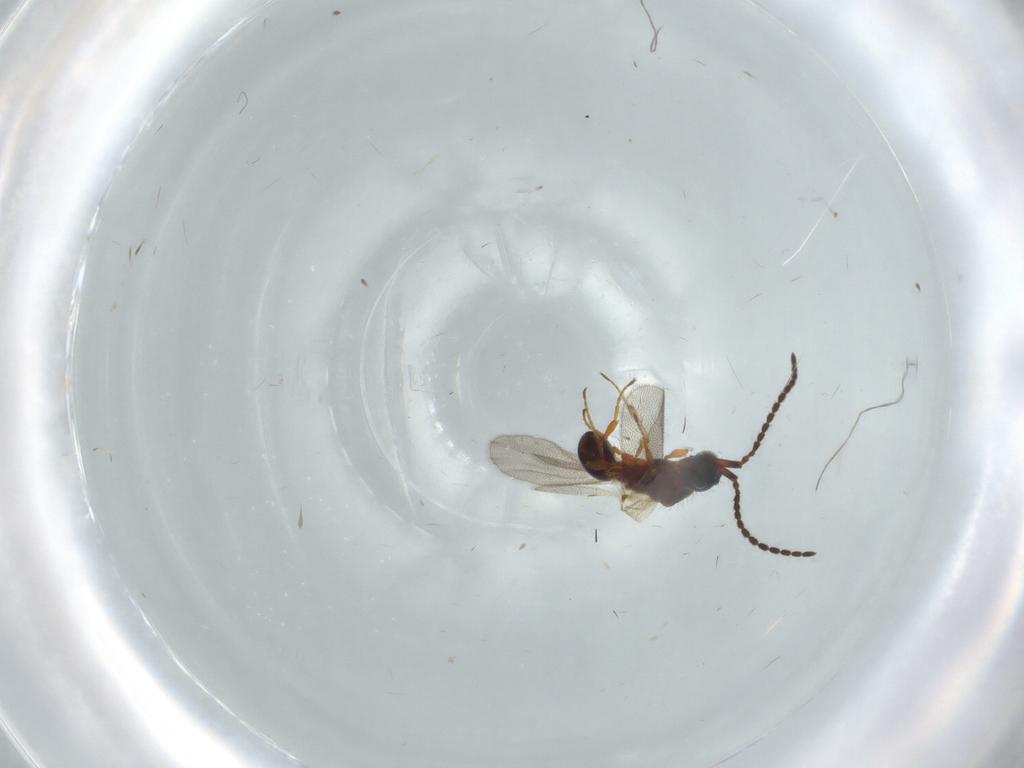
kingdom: Animalia
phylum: Arthropoda
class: Insecta
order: Hymenoptera
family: Diapriidae
